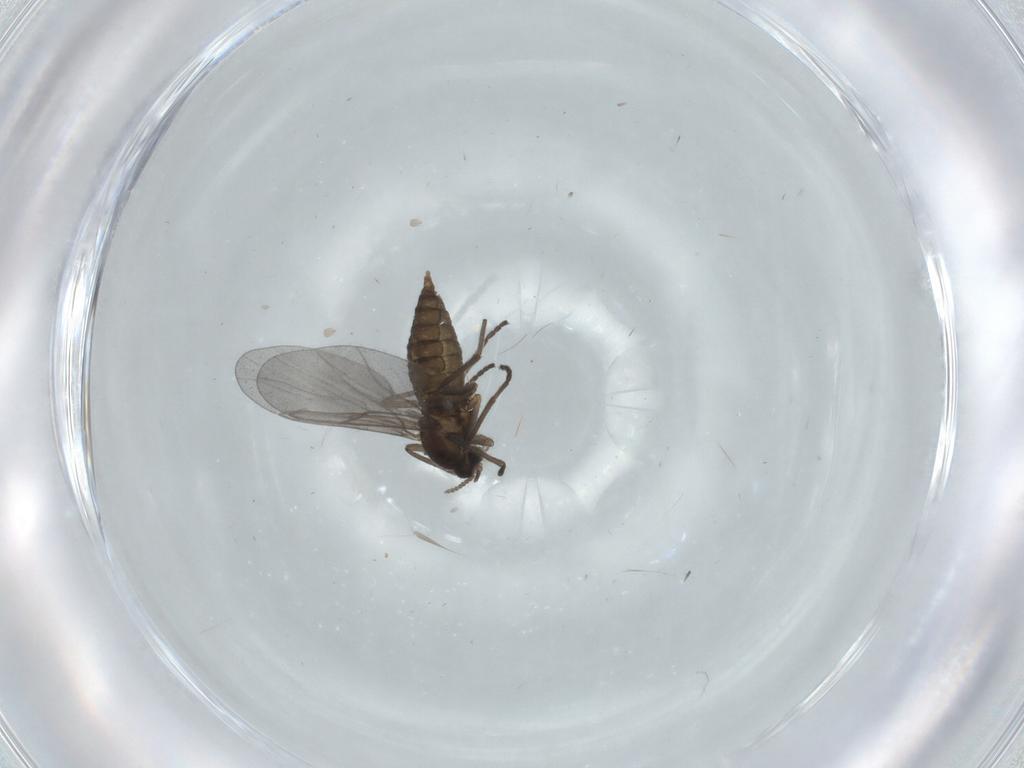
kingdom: Animalia
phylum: Arthropoda
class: Insecta
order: Diptera
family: Cecidomyiidae
